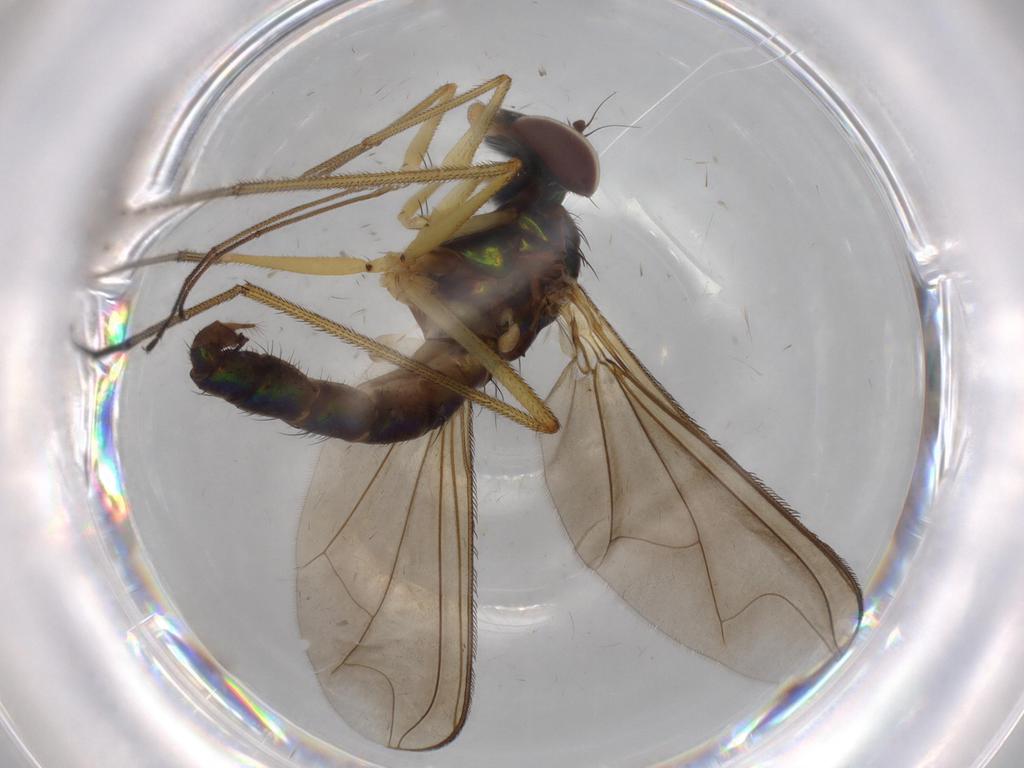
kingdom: Animalia
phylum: Arthropoda
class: Insecta
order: Diptera
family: Dolichopodidae
